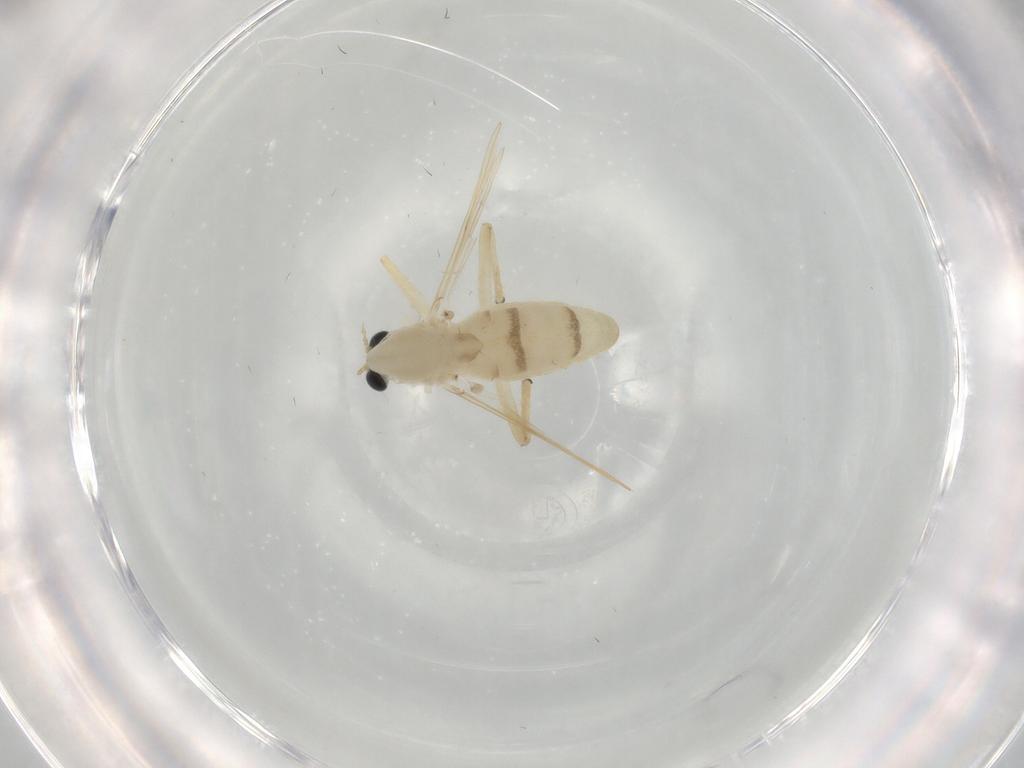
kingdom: Animalia
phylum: Arthropoda
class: Insecta
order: Diptera
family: Chironomidae
